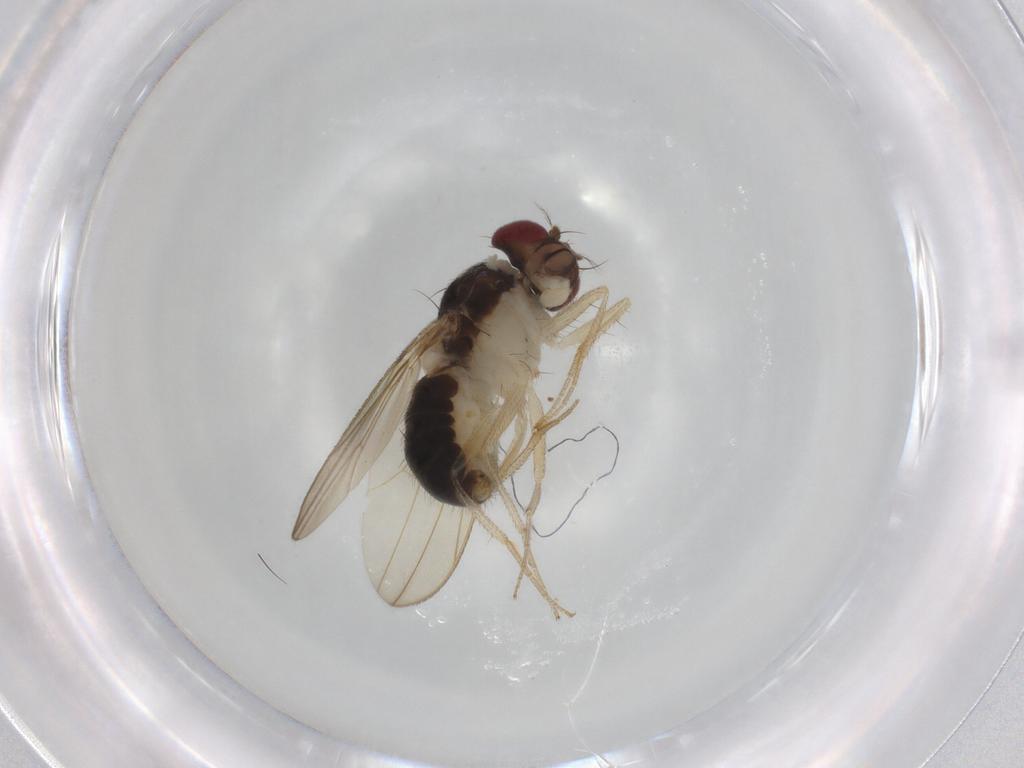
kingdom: Animalia
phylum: Arthropoda
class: Insecta
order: Diptera
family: Drosophilidae
